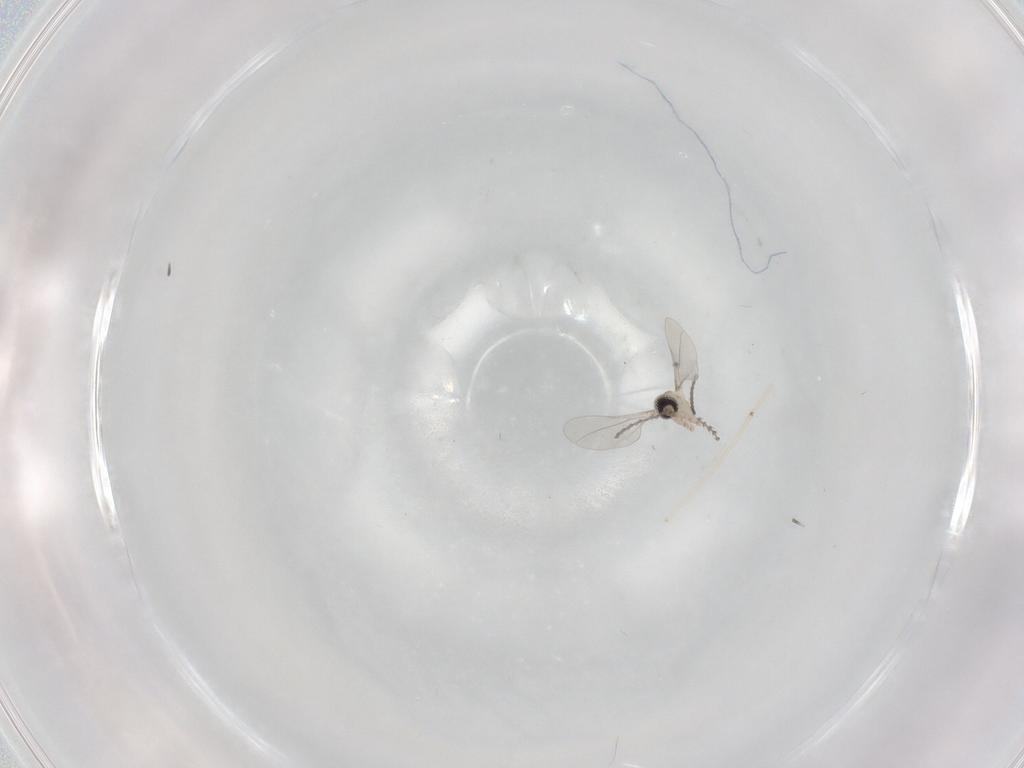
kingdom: Animalia
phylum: Arthropoda
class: Insecta
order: Diptera
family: Cecidomyiidae
